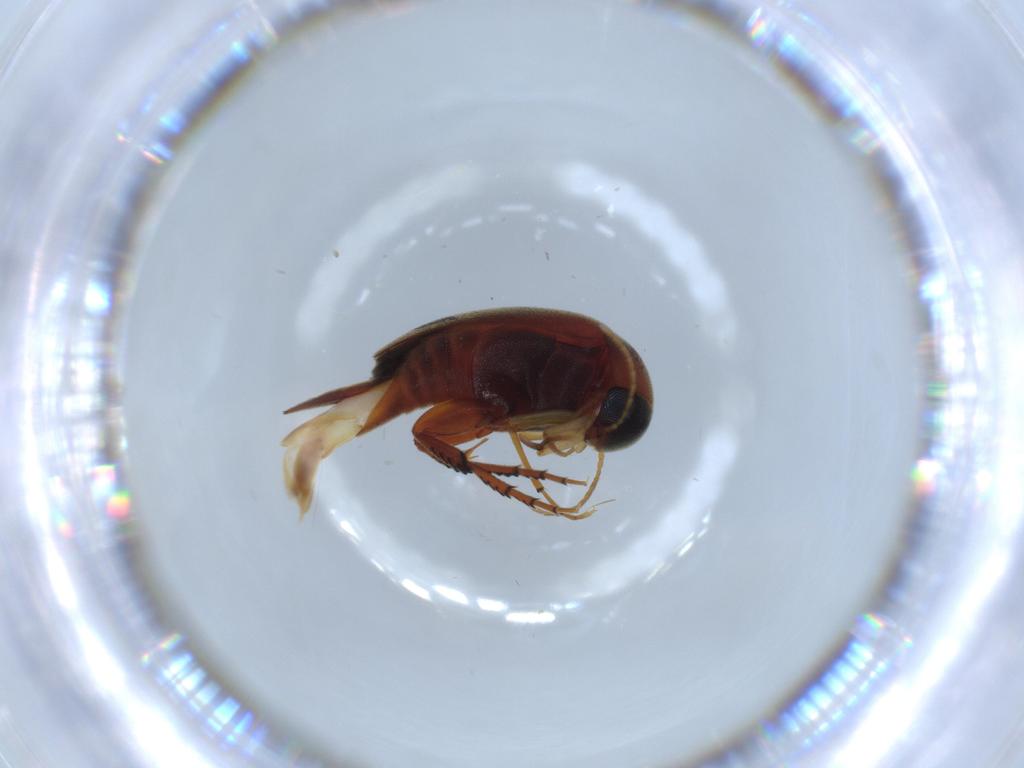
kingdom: Animalia
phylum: Arthropoda
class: Insecta
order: Coleoptera
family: Mordellidae
